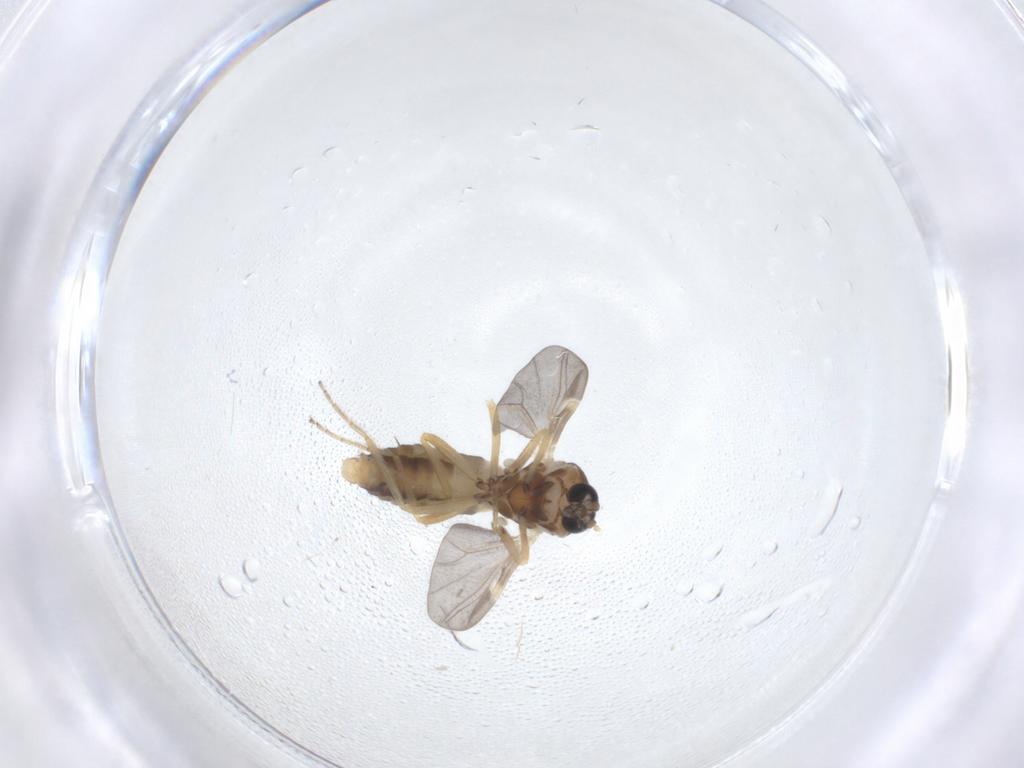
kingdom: Animalia
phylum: Arthropoda
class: Insecta
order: Diptera
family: Ceratopogonidae
